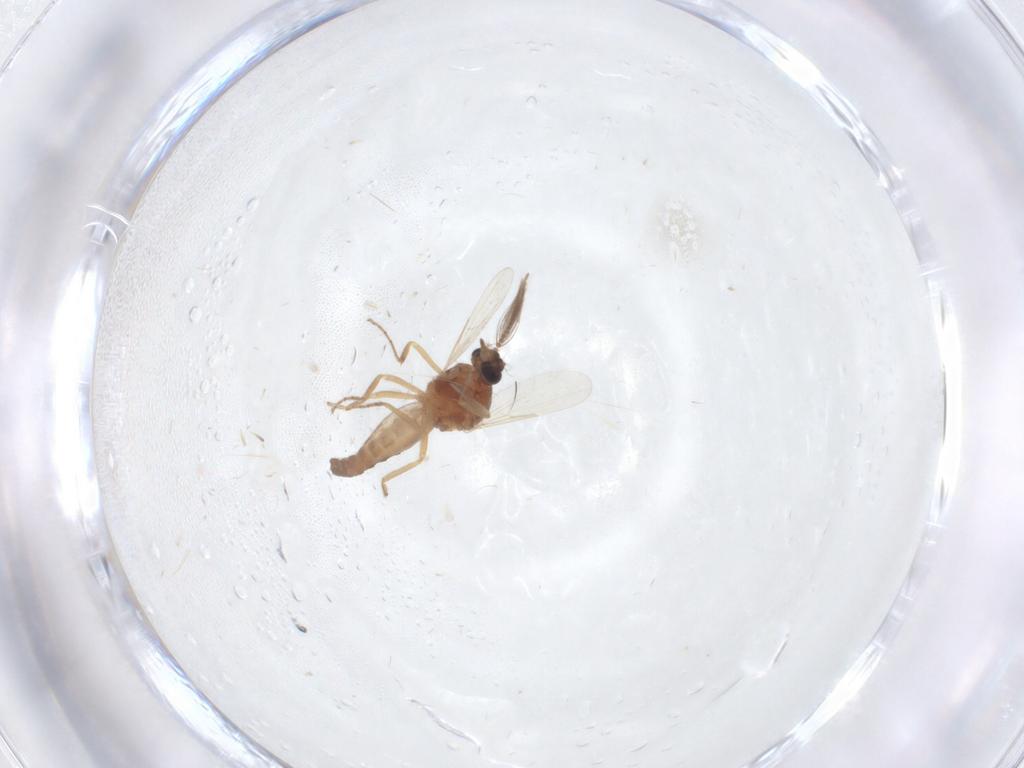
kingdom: Animalia
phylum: Arthropoda
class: Insecta
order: Diptera
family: Ceratopogonidae
